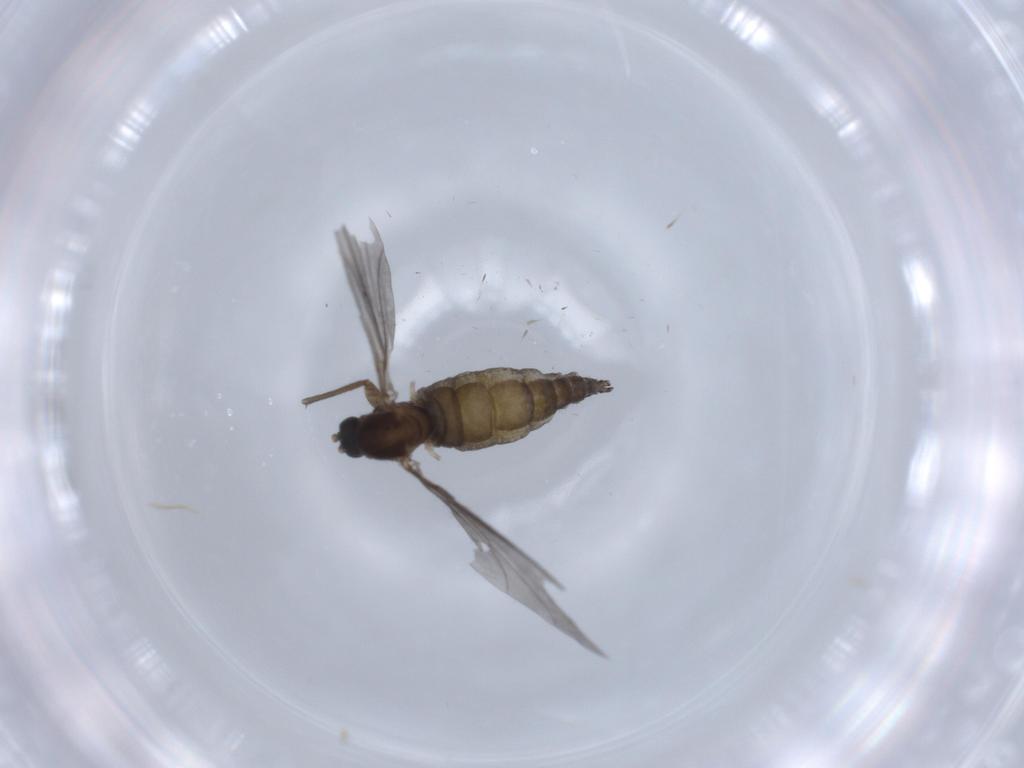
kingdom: Animalia
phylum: Arthropoda
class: Insecta
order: Diptera
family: Sciaridae
